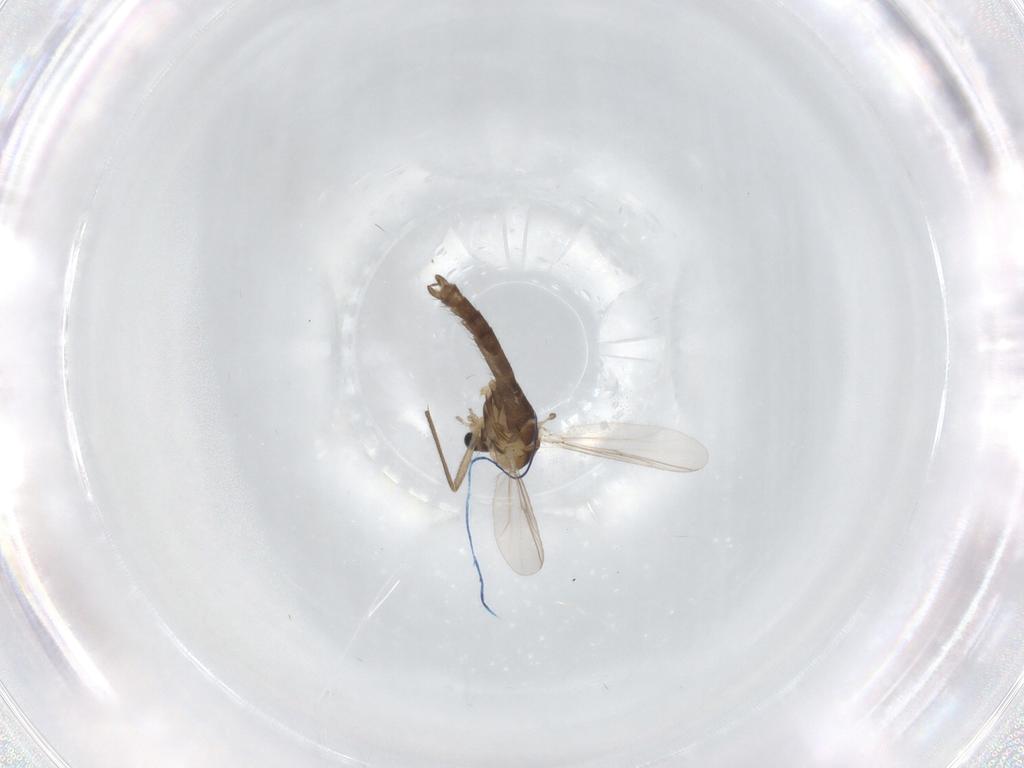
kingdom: Animalia
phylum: Arthropoda
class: Insecta
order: Diptera
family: Chironomidae
